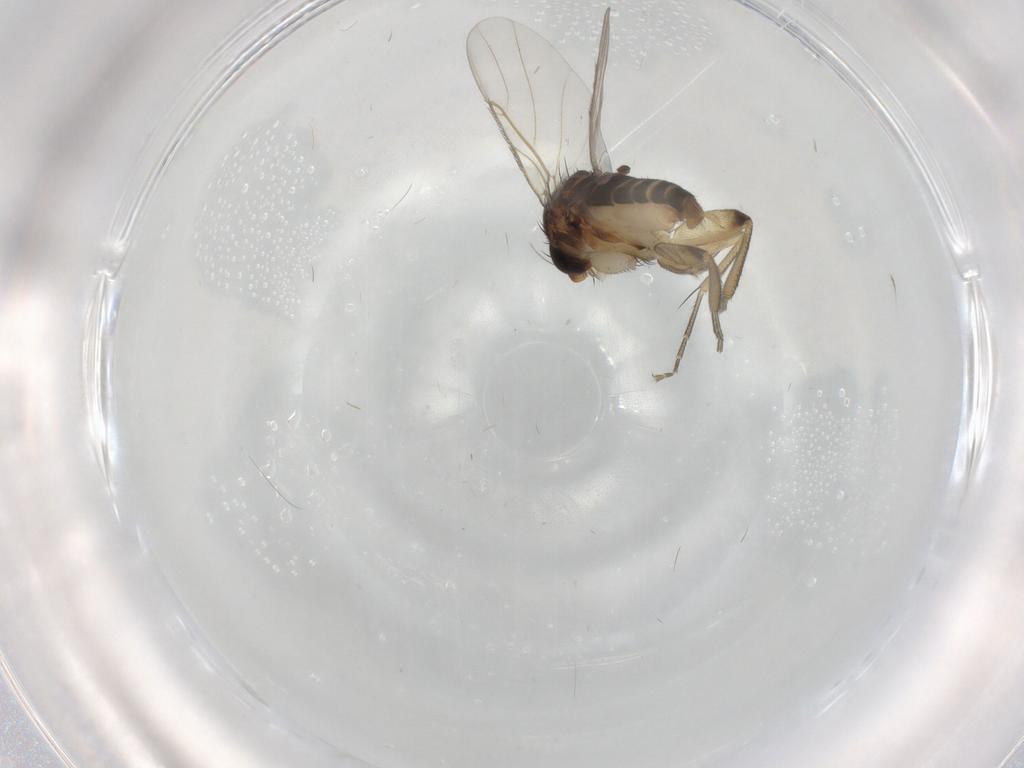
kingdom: Animalia
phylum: Arthropoda
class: Insecta
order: Diptera
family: Phoridae
